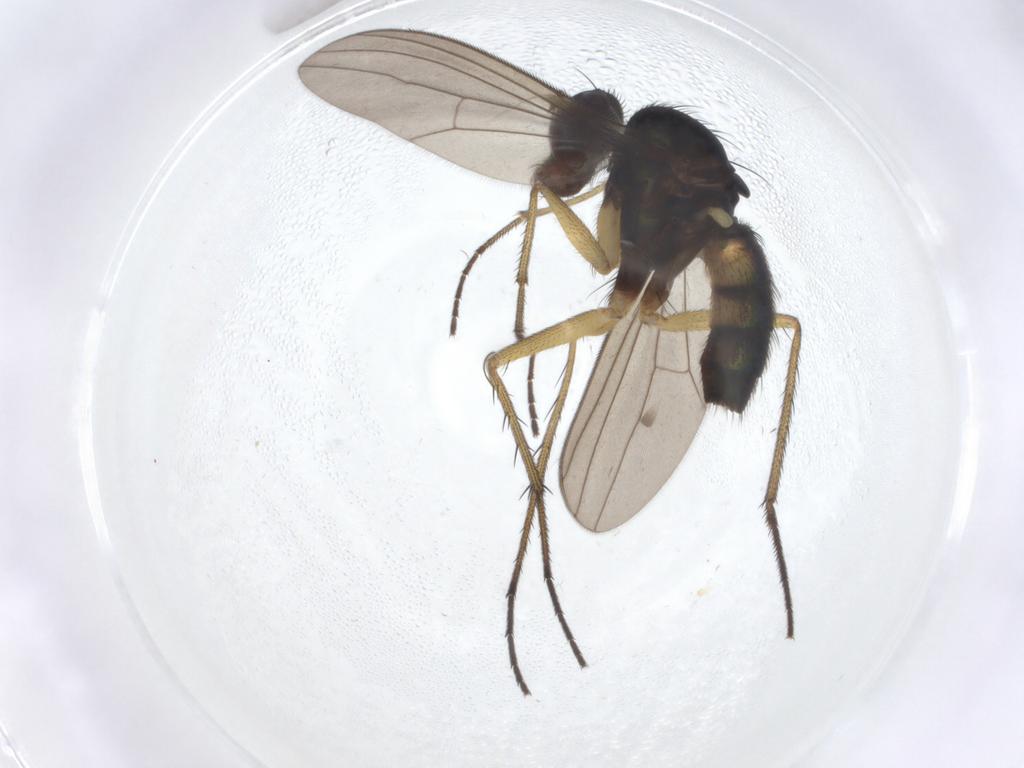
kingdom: Animalia
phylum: Arthropoda
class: Insecta
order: Diptera
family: Dolichopodidae
